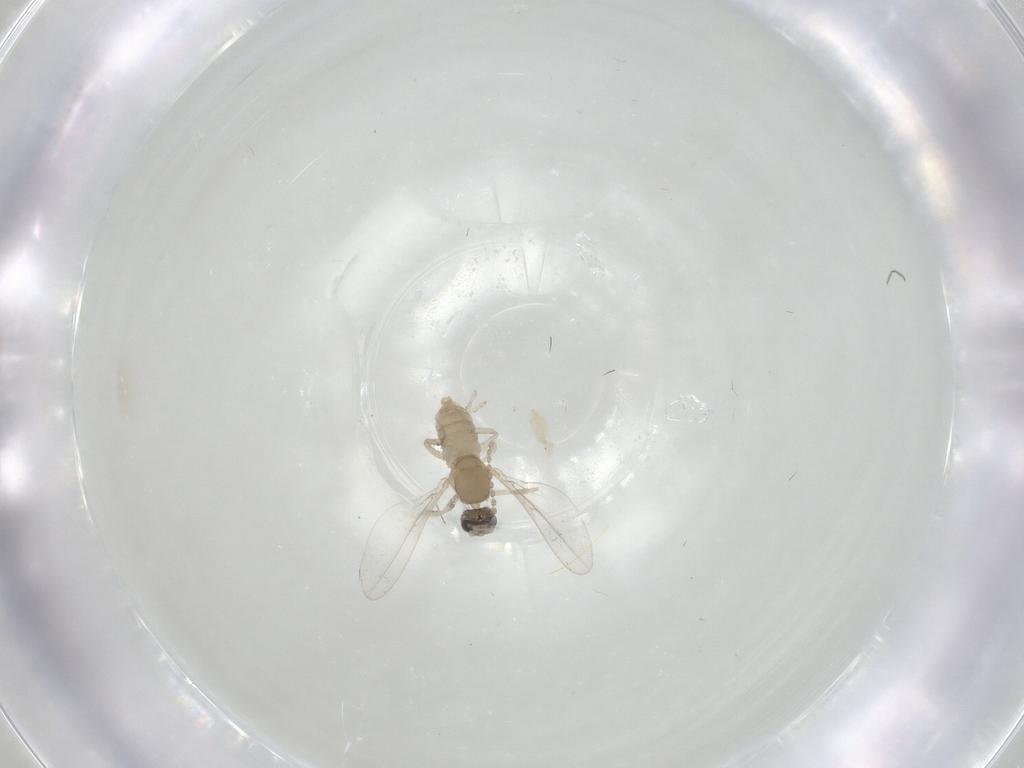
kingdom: Animalia
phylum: Arthropoda
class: Insecta
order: Diptera
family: Cecidomyiidae
